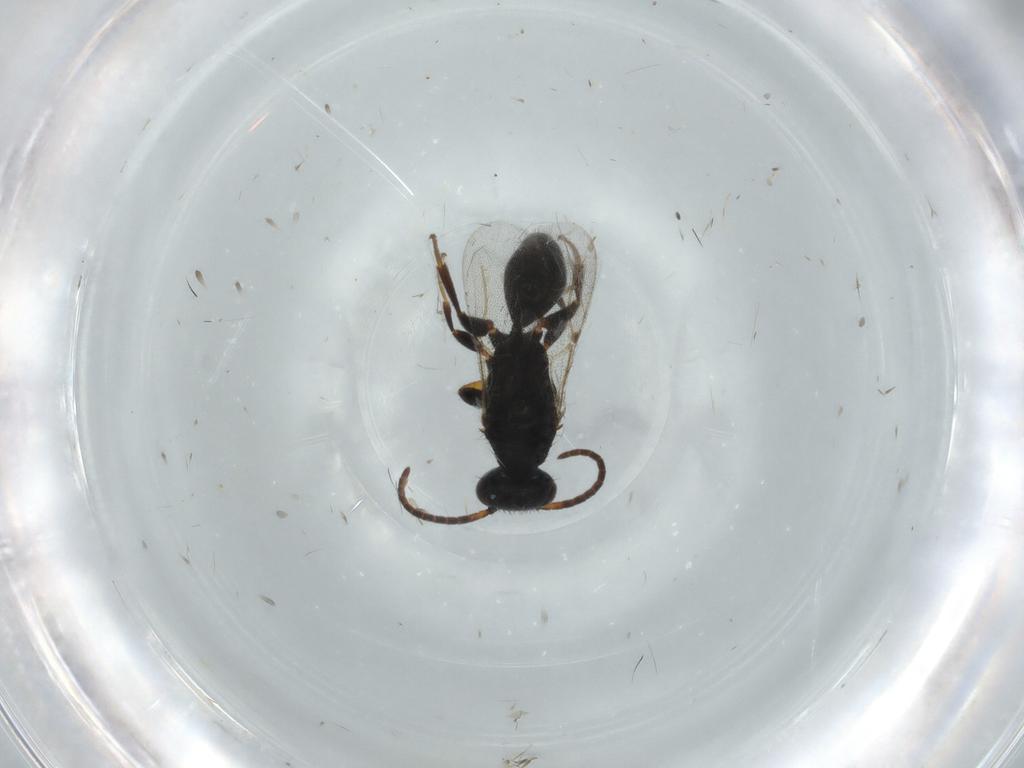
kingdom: Animalia
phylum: Arthropoda
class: Insecta
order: Hymenoptera
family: Bethylidae
